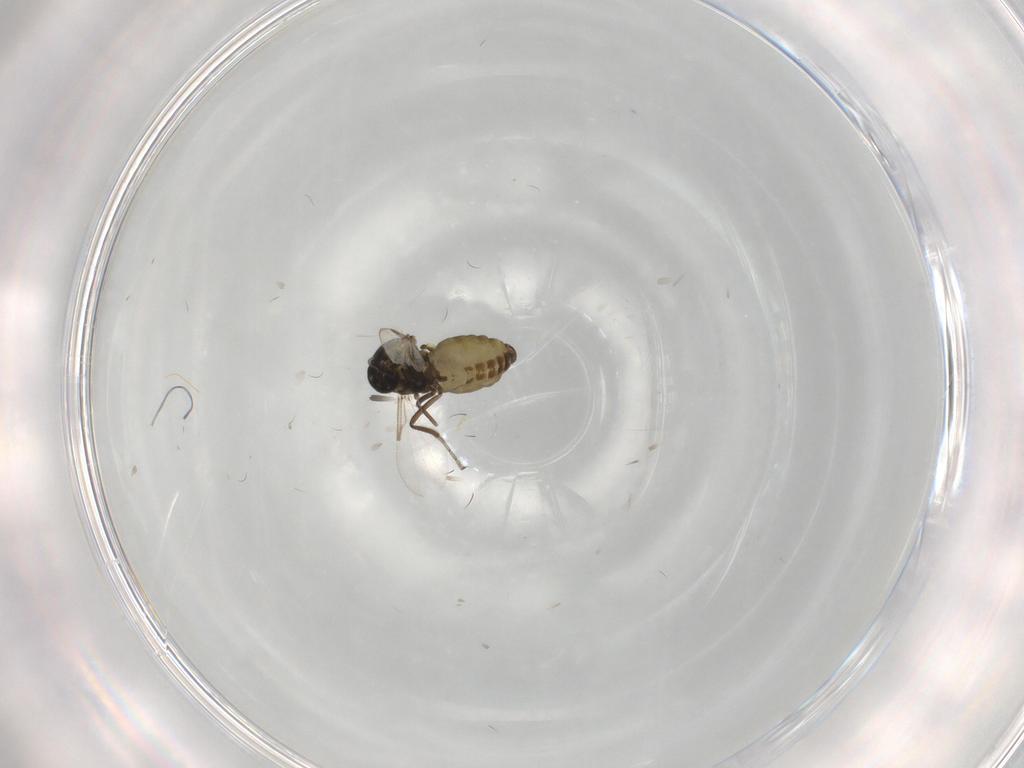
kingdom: Animalia
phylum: Arthropoda
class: Insecta
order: Diptera
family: Ceratopogonidae
